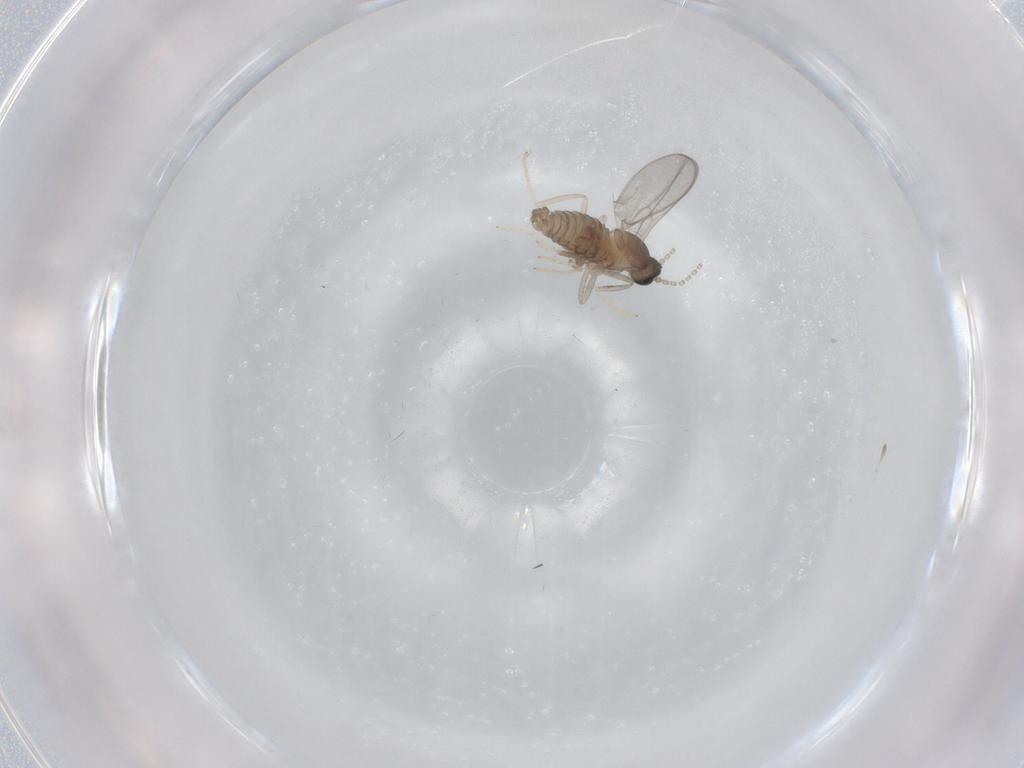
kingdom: Animalia
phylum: Arthropoda
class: Insecta
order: Diptera
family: Cecidomyiidae
